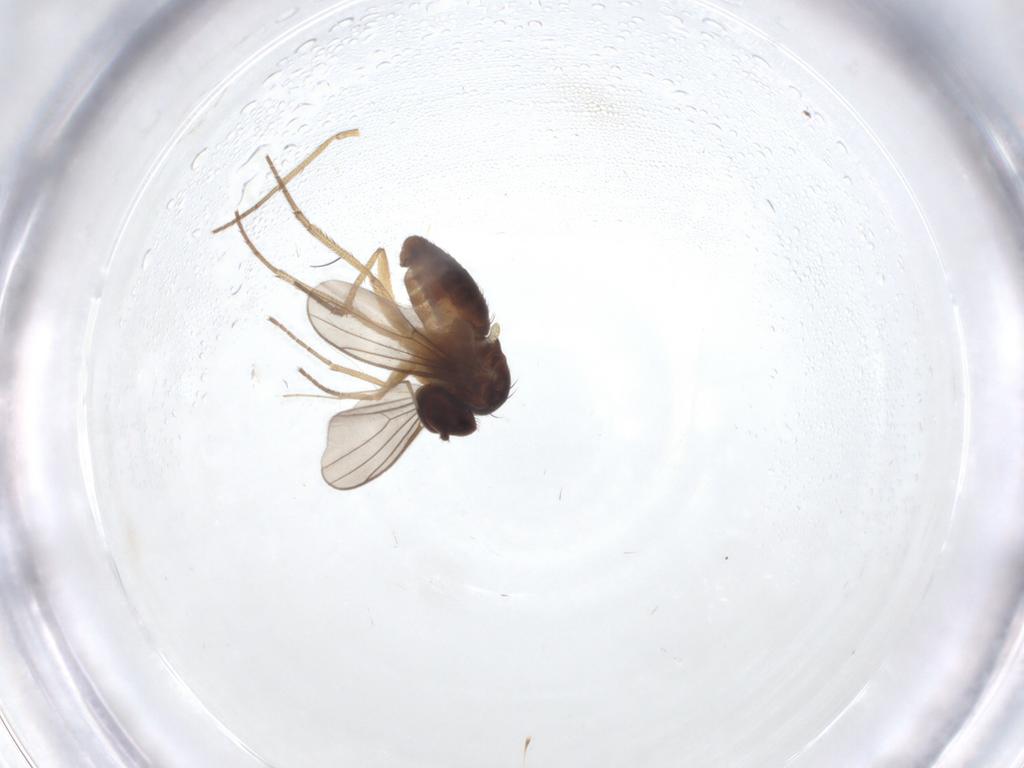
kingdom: Animalia
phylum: Arthropoda
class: Insecta
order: Diptera
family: Dolichopodidae
